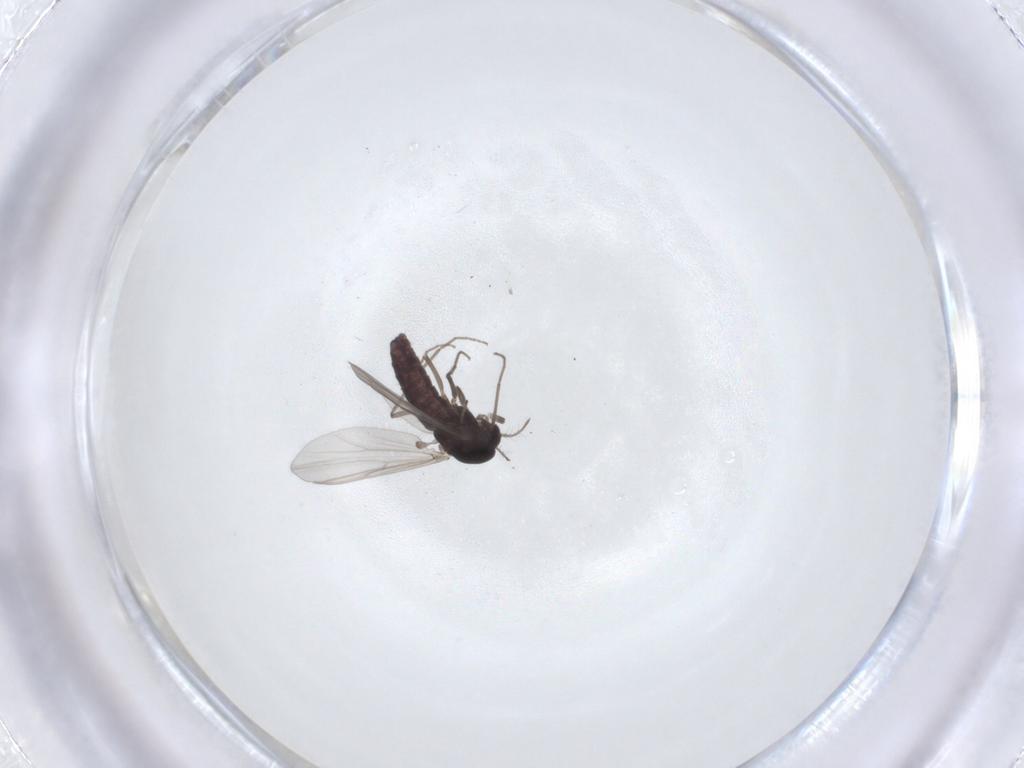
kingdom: Animalia
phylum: Arthropoda
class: Insecta
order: Diptera
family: Chironomidae
